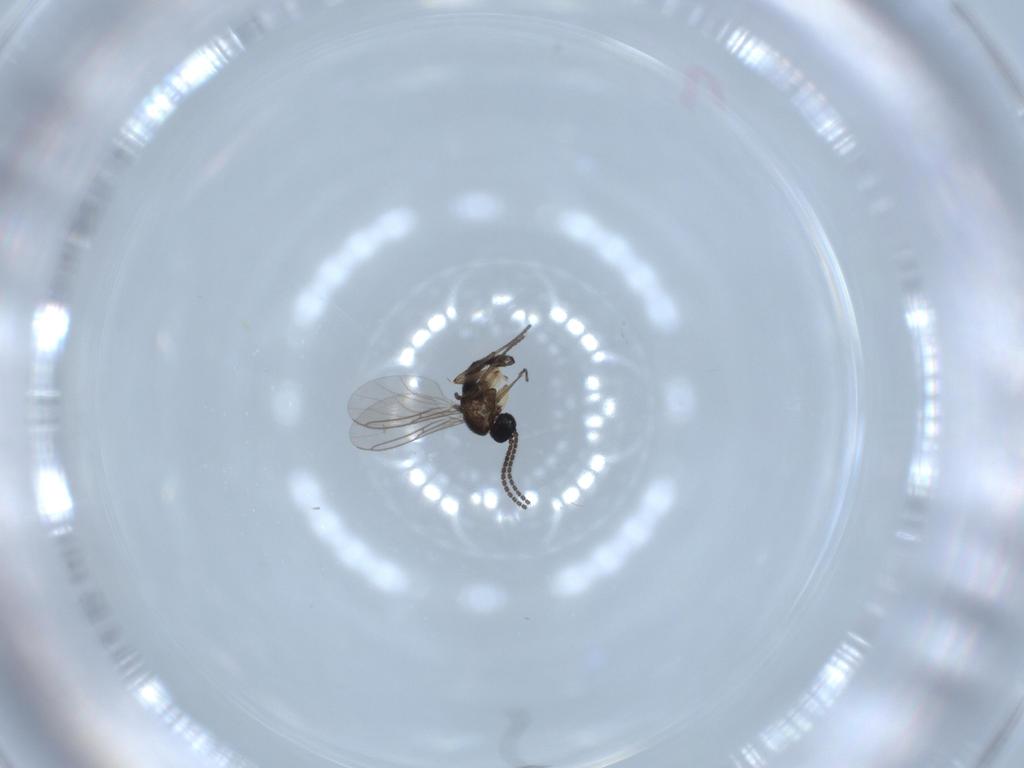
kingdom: Animalia
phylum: Arthropoda
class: Insecta
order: Diptera
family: Sciaridae
